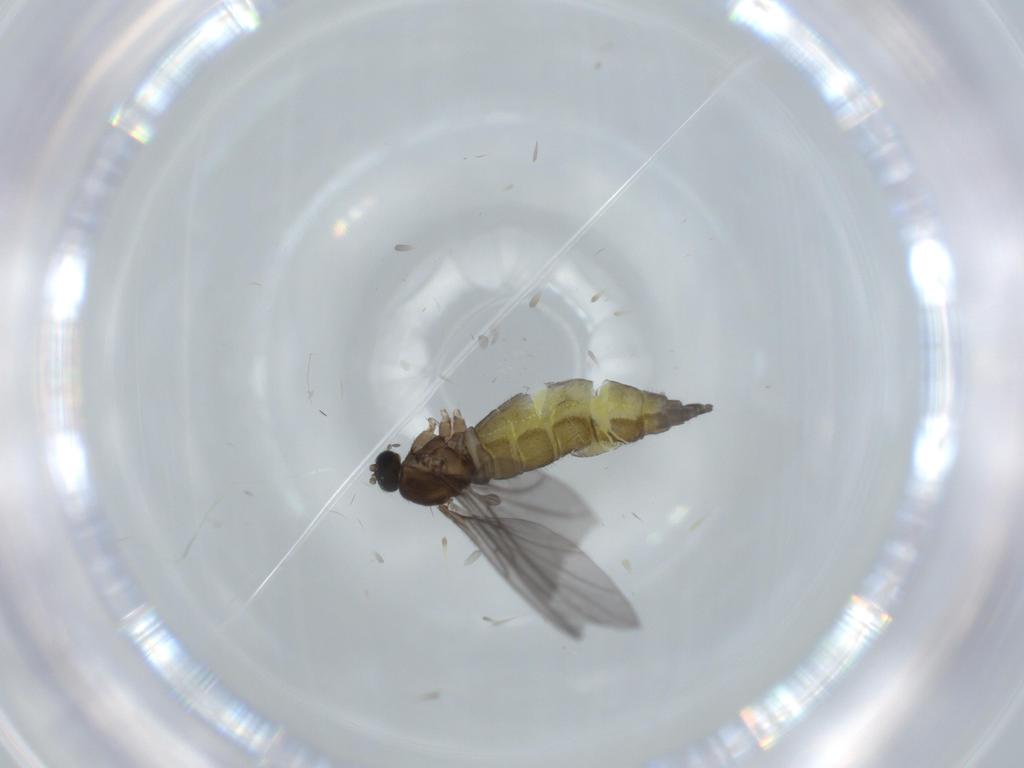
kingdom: Animalia
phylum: Arthropoda
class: Insecta
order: Diptera
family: Sciaridae
